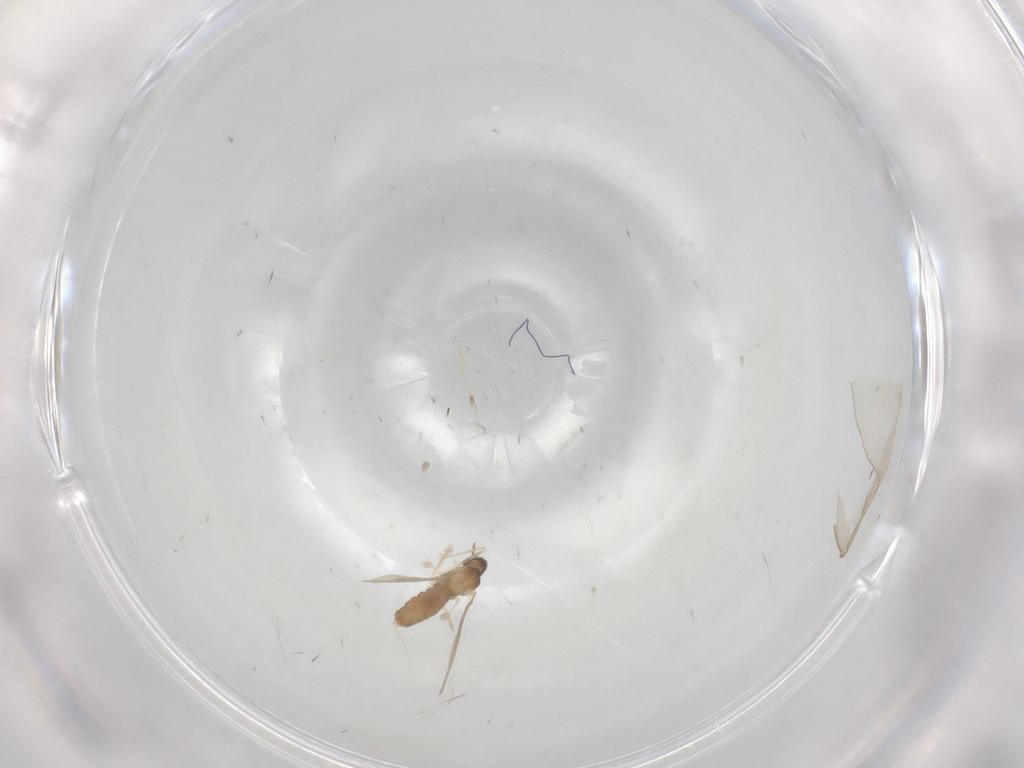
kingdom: Animalia
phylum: Arthropoda
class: Insecta
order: Diptera
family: Cecidomyiidae
